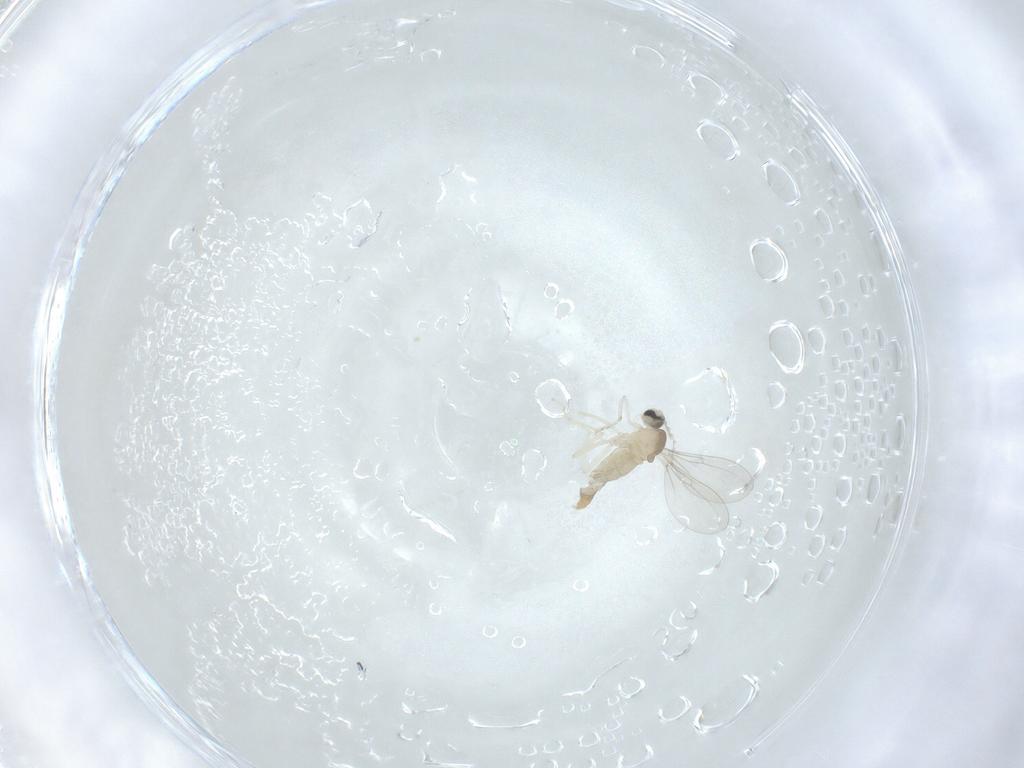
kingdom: Animalia
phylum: Arthropoda
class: Insecta
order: Diptera
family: Cecidomyiidae
